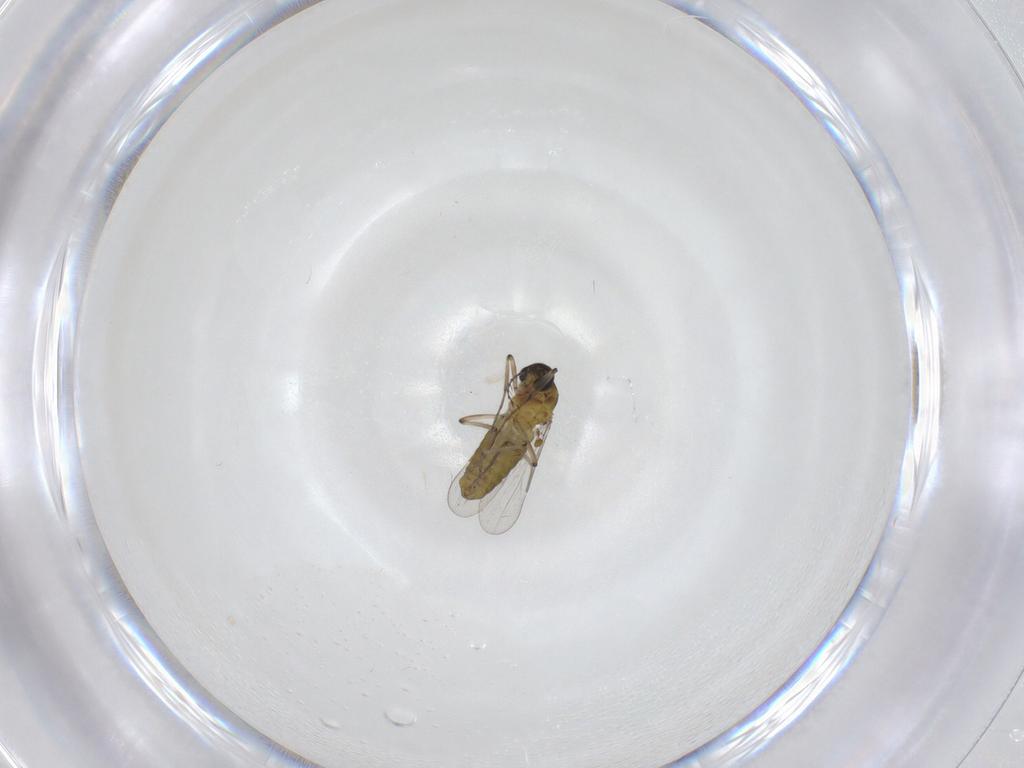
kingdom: Animalia
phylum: Arthropoda
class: Insecta
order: Diptera
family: Ceratopogonidae
